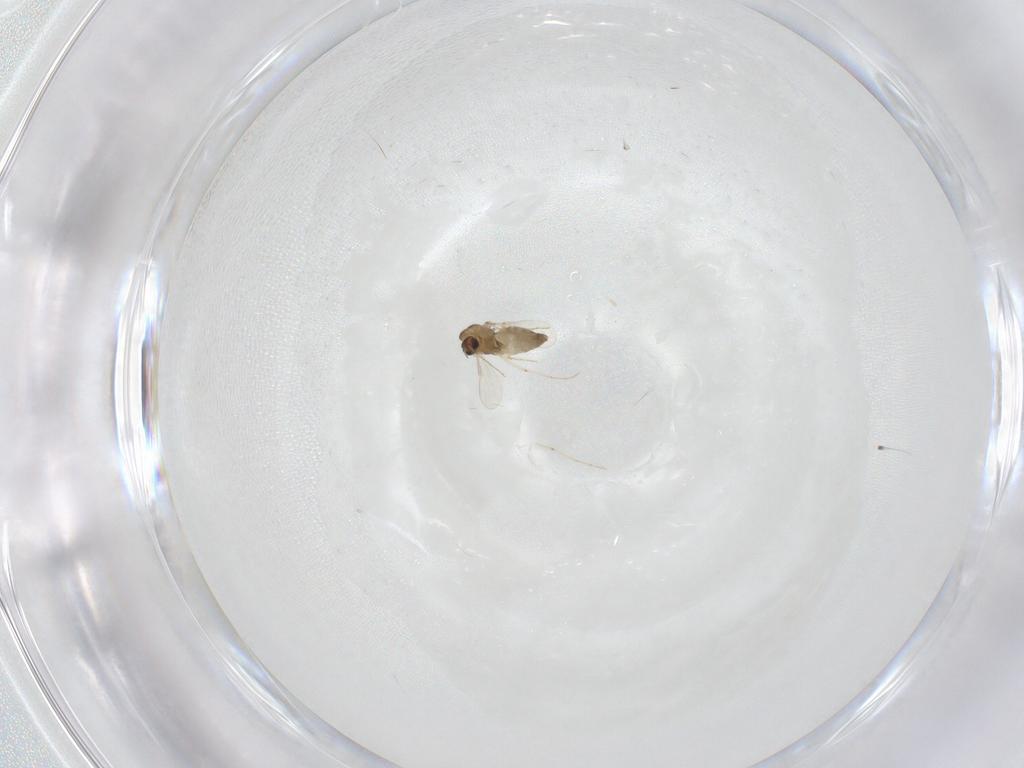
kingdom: Animalia
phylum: Arthropoda
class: Insecta
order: Diptera
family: Chironomidae
